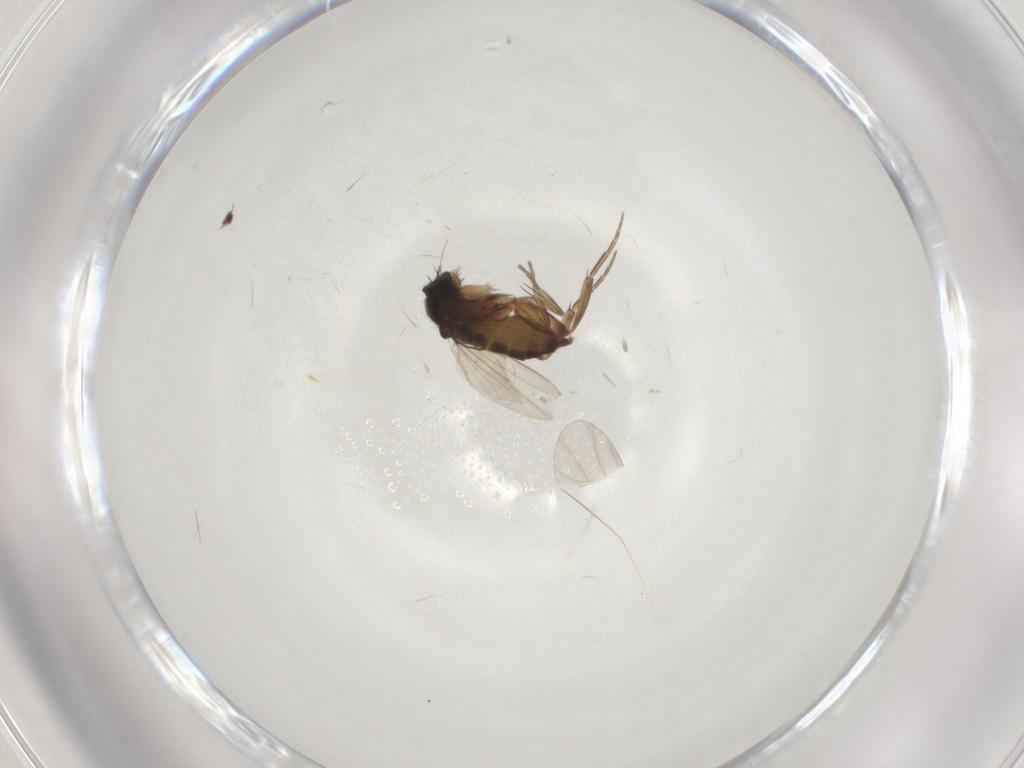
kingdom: Animalia
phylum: Arthropoda
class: Insecta
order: Diptera
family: Keroplatidae
